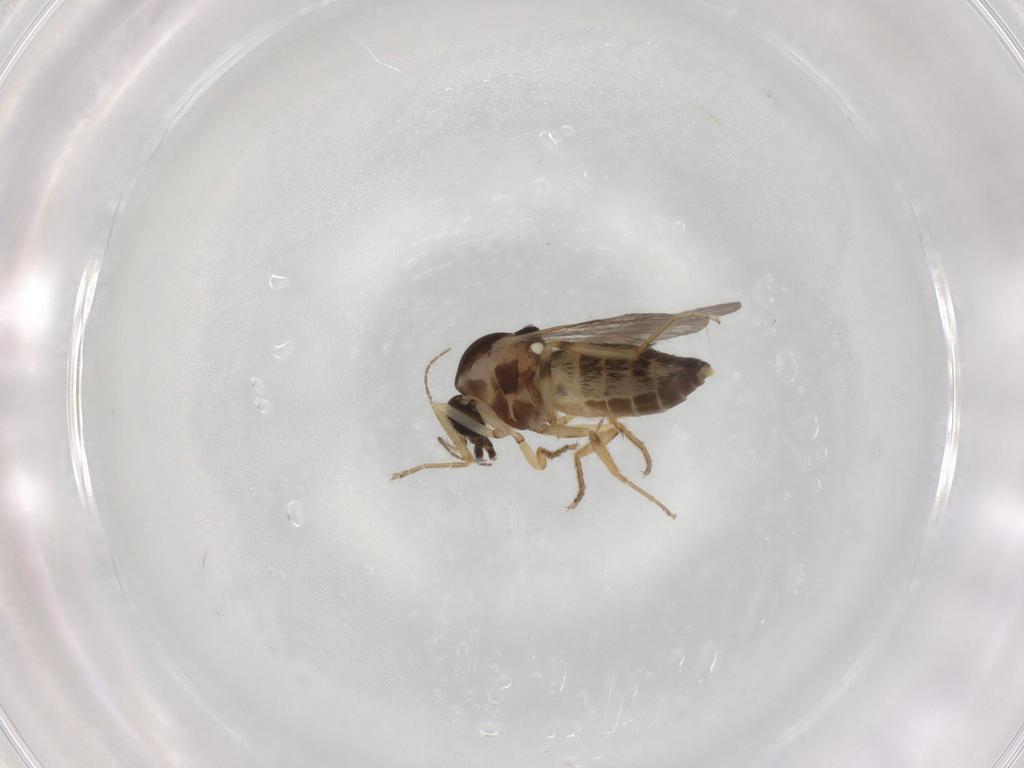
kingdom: Animalia
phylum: Arthropoda
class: Insecta
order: Diptera
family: Ceratopogonidae
